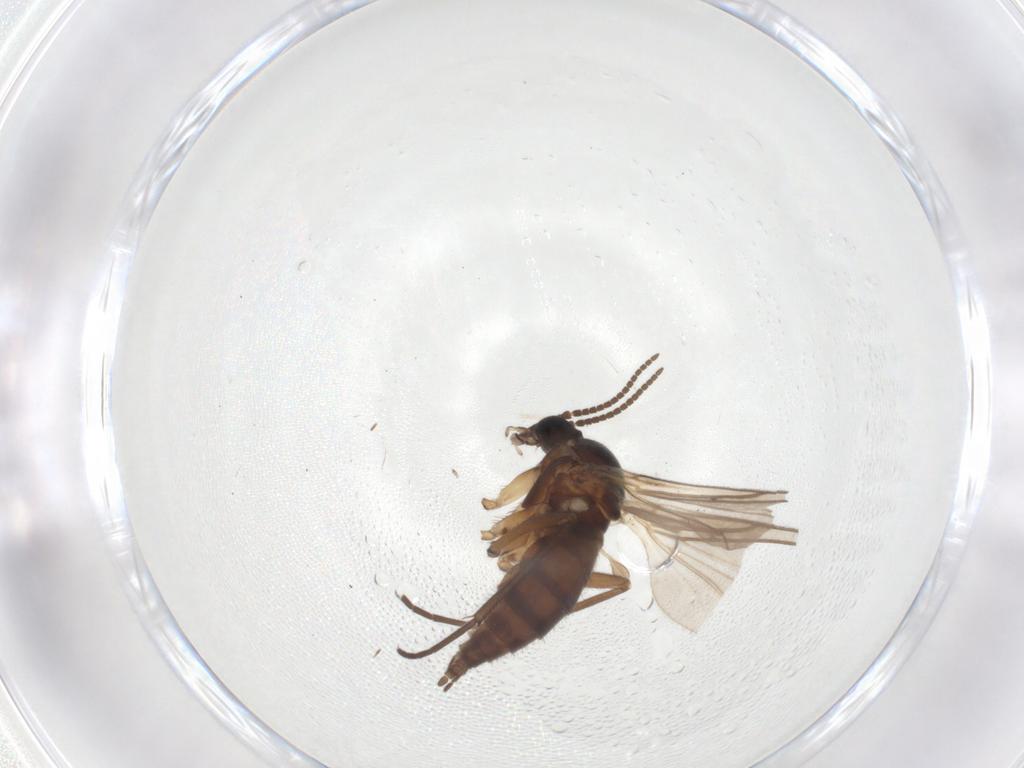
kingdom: Animalia
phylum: Arthropoda
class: Insecta
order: Diptera
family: Sciaridae
